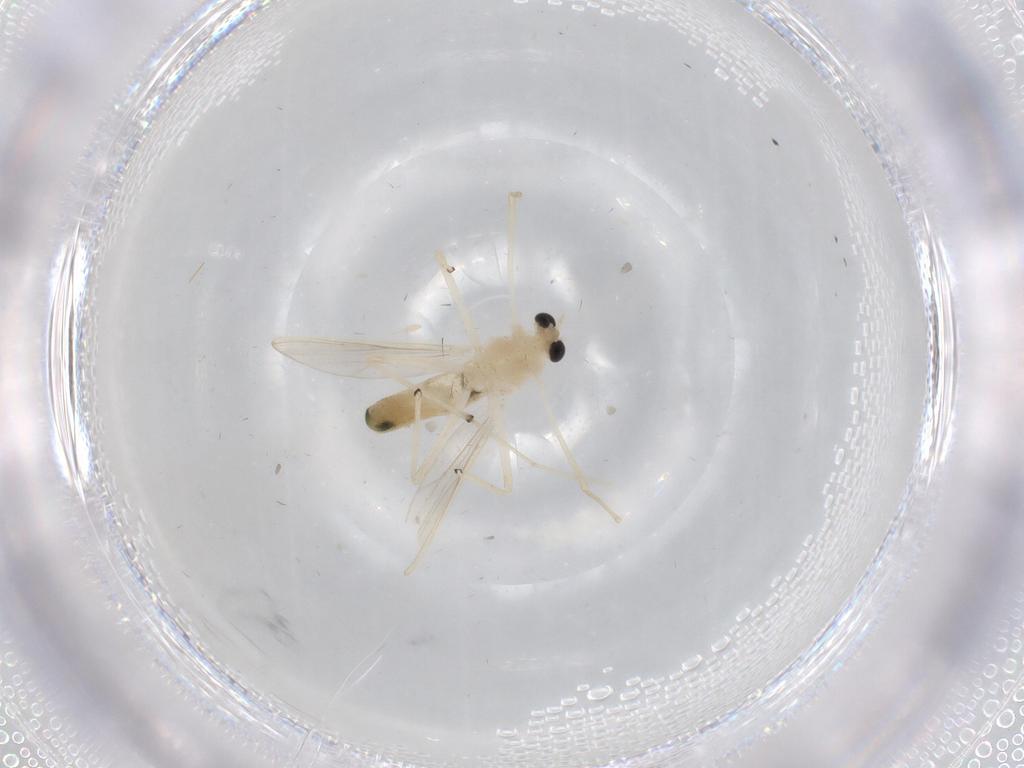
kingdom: Animalia
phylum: Arthropoda
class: Insecta
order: Diptera
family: Chironomidae
